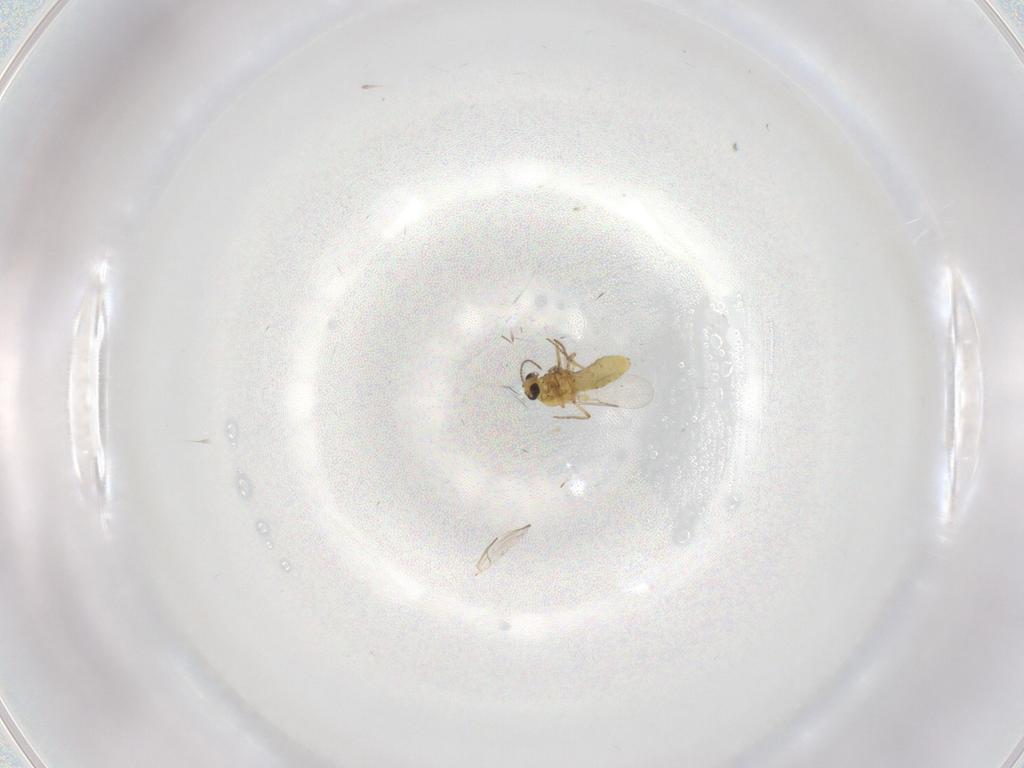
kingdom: Animalia
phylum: Arthropoda
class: Insecta
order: Diptera
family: Ceratopogonidae
